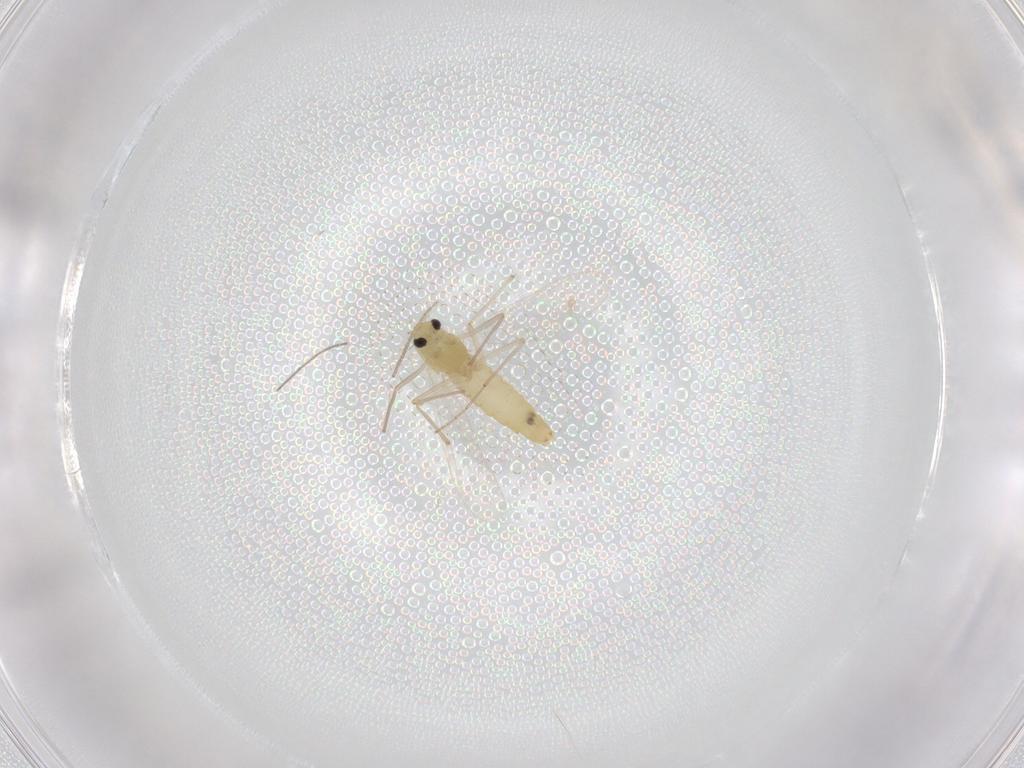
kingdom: Animalia
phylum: Arthropoda
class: Insecta
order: Diptera
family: Chironomidae
